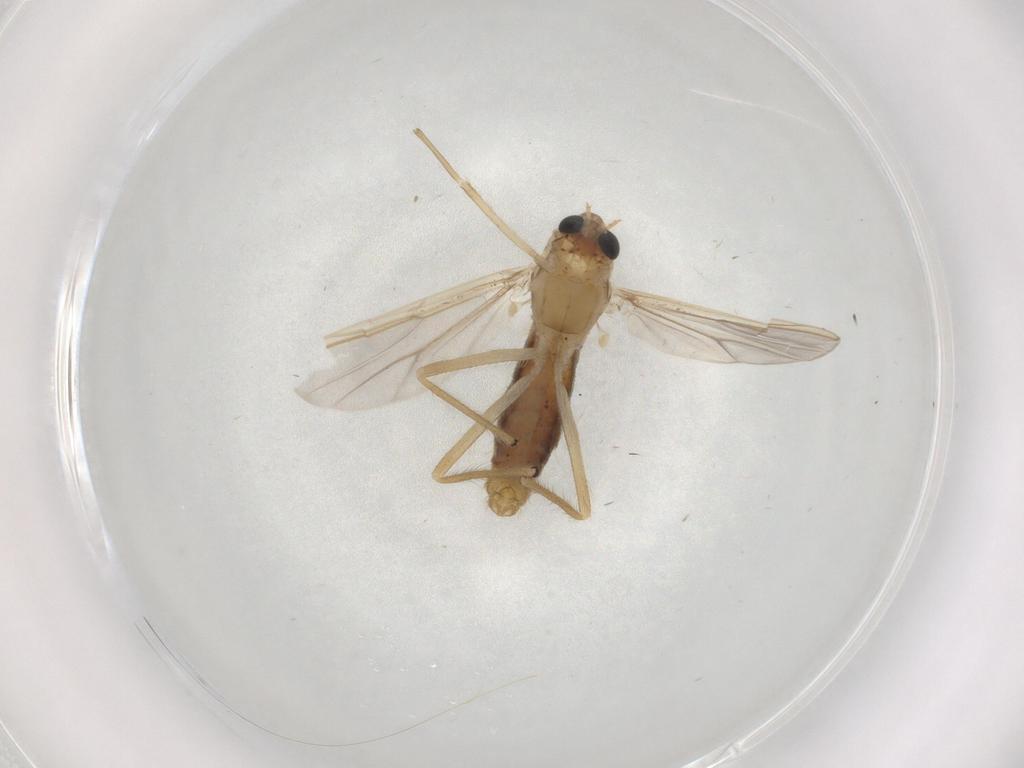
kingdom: Animalia
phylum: Arthropoda
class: Insecta
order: Diptera
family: Chironomidae
